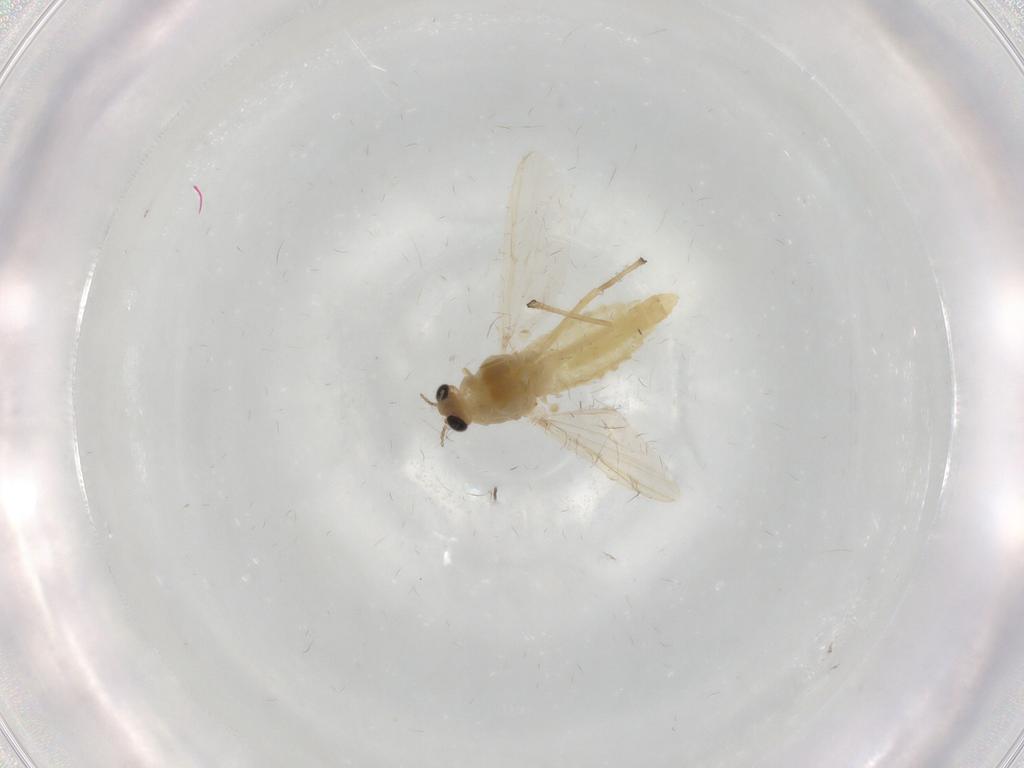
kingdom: Animalia
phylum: Arthropoda
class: Insecta
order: Diptera
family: Chironomidae
